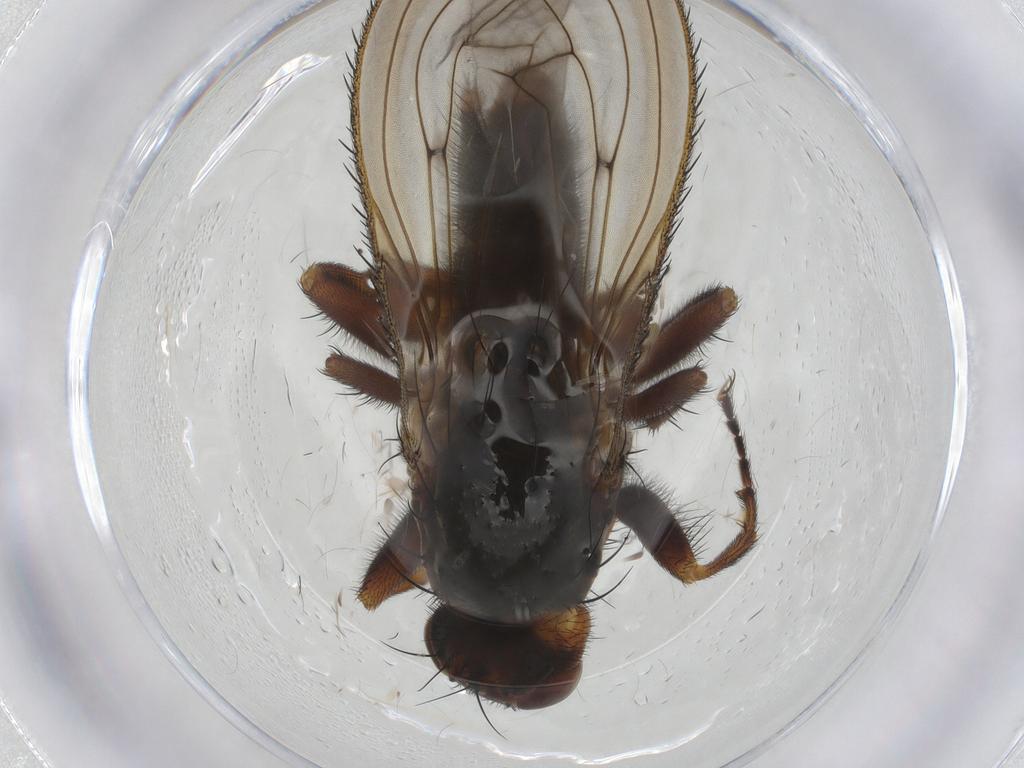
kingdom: Animalia
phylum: Arthropoda
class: Insecta
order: Diptera
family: Heleomyzidae
